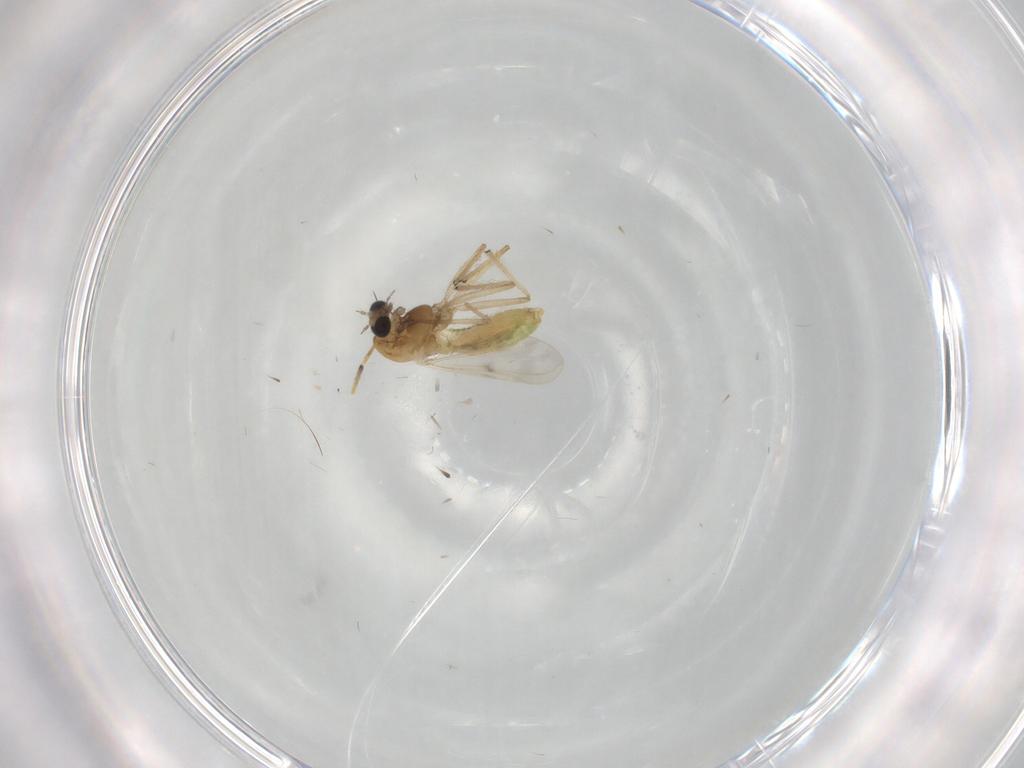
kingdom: Animalia
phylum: Arthropoda
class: Insecta
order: Diptera
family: Chironomidae
